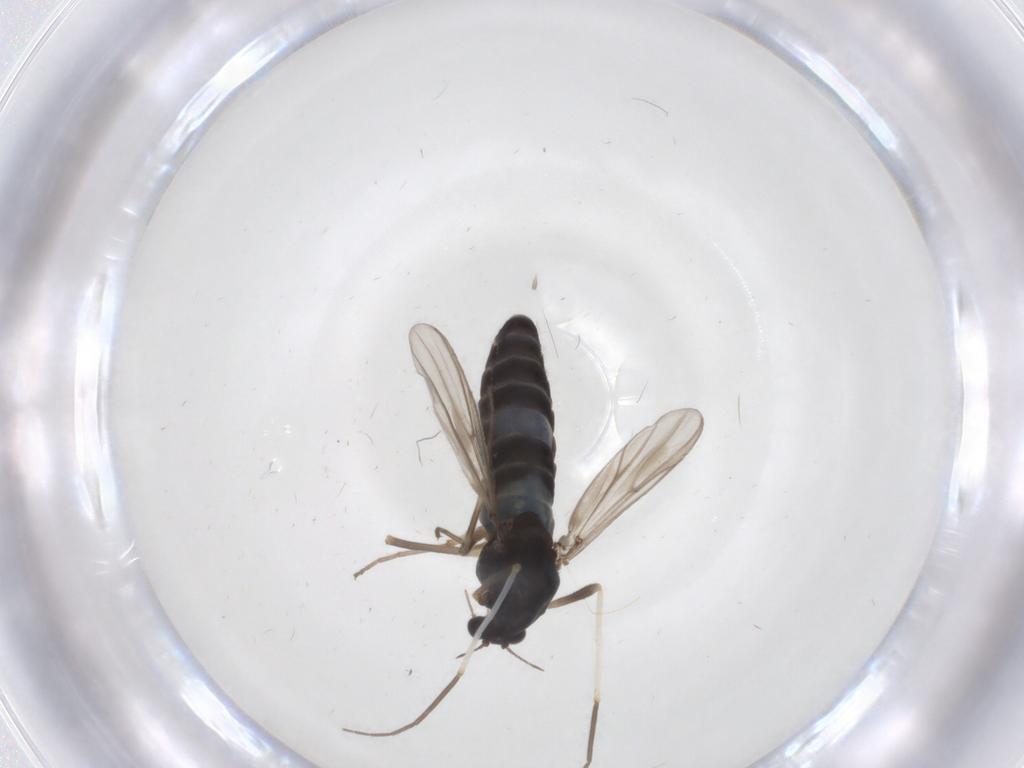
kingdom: Animalia
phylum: Arthropoda
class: Insecta
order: Diptera
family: Chironomidae
